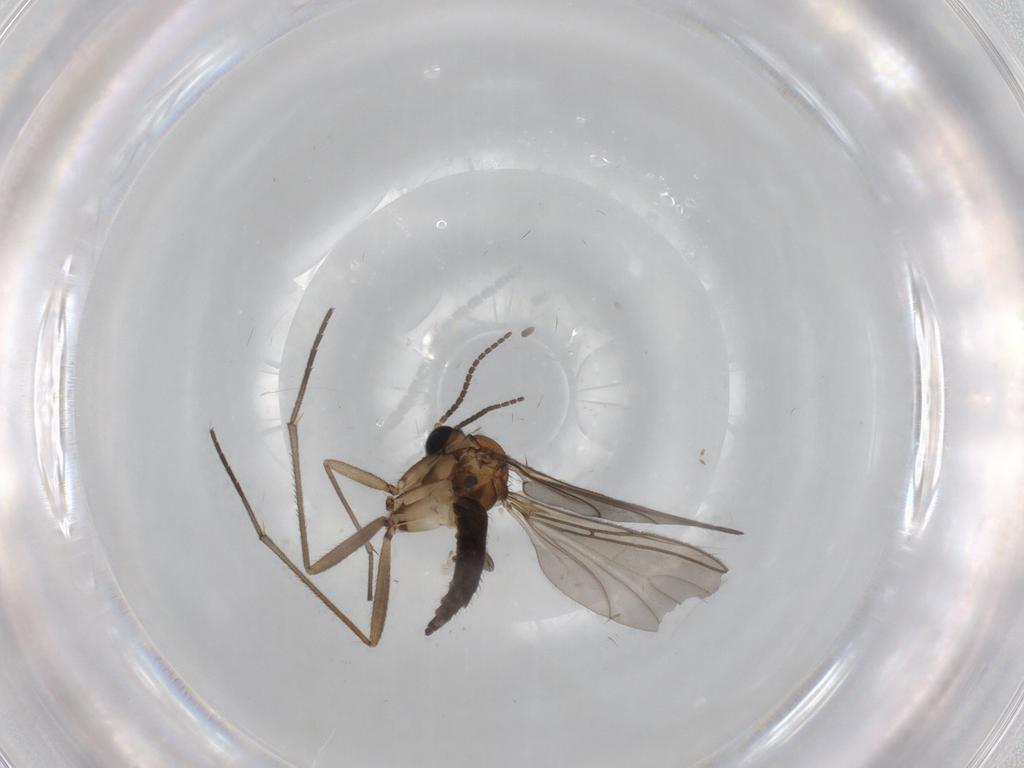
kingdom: Animalia
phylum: Arthropoda
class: Insecta
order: Diptera
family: Sciaridae
